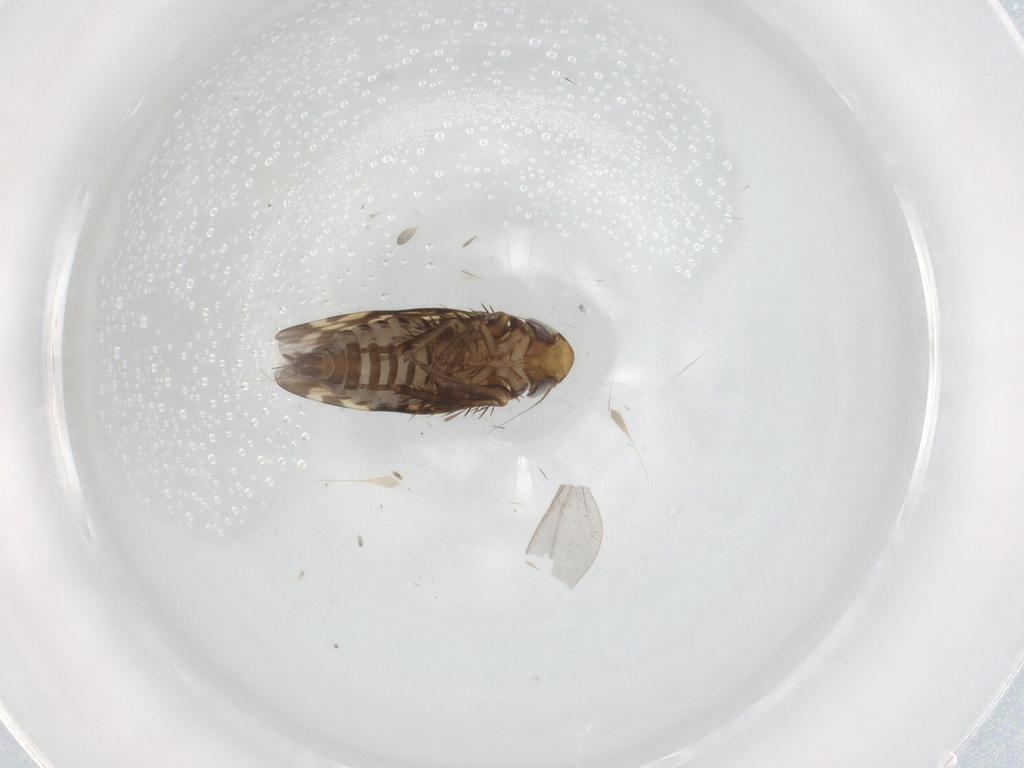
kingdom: Animalia
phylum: Arthropoda
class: Insecta
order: Hemiptera
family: Cicadellidae
